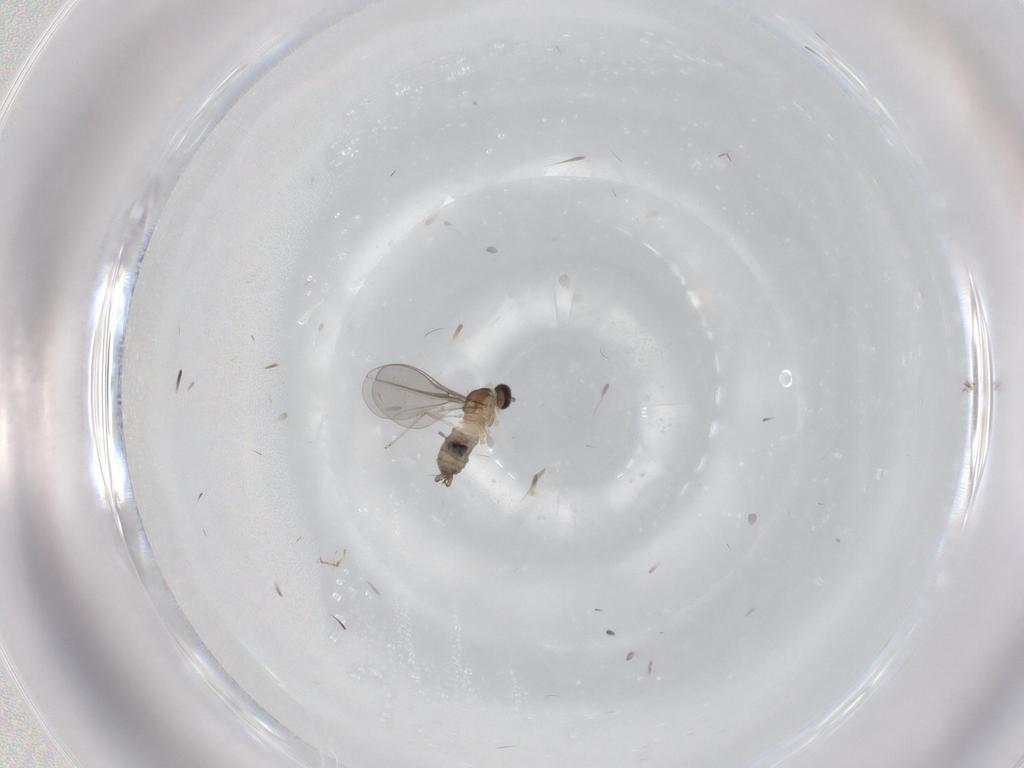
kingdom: Animalia
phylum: Arthropoda
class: Insecta
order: Diptera
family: Cecidomyiidae
